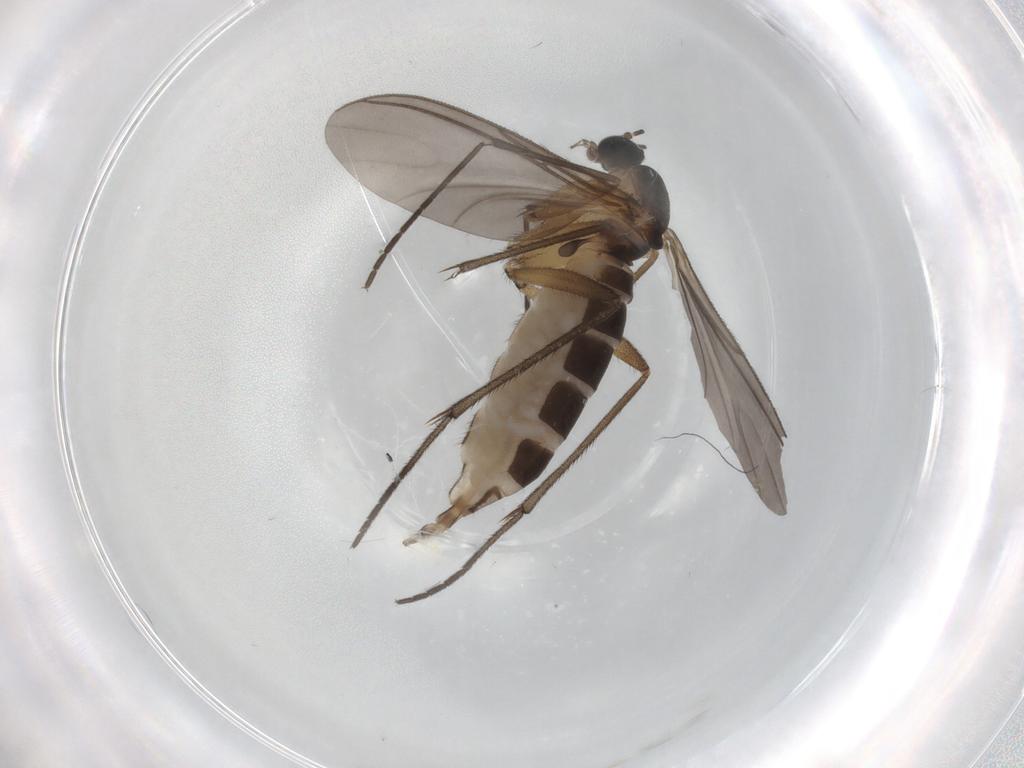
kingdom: Animalia
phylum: Arthropoda
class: Insecta
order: Diptera
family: Sciaridae
